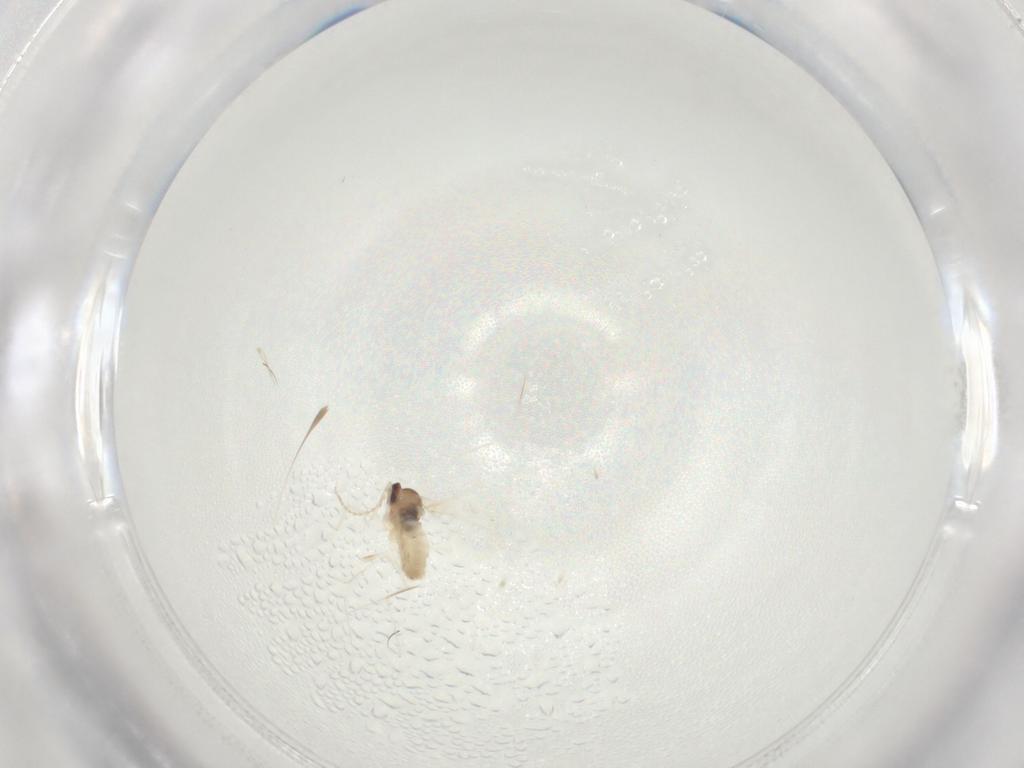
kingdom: Animalia
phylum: Arthropoda
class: Insecta
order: Diptera
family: Cecidomyiidae
